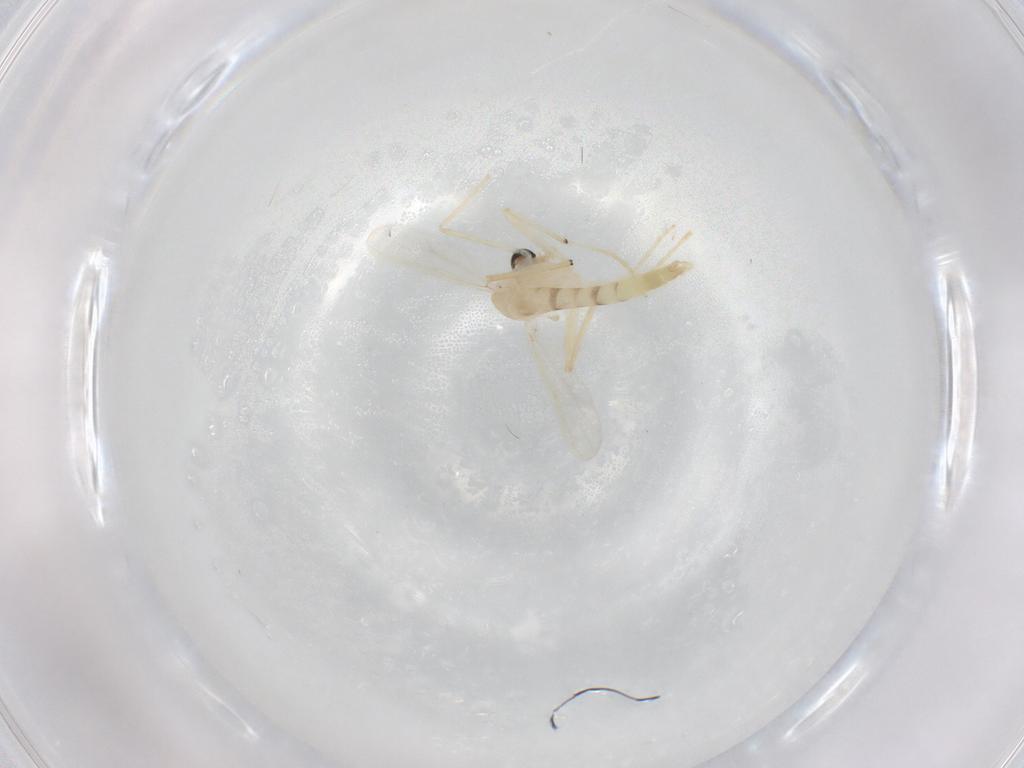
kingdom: Animalia
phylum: Arthropoda
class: Insecta
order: Diptera
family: Chironomidae
